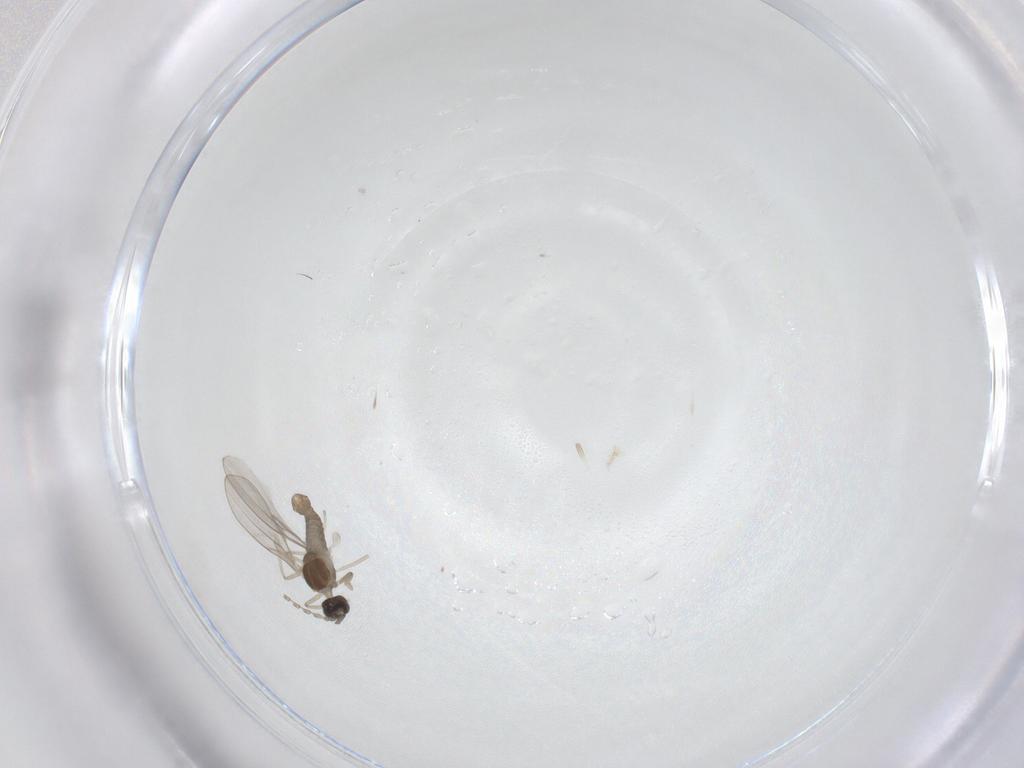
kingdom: Animalia
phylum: Arthropoda
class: Insecta
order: Diptera
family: Cecidomyiidae
